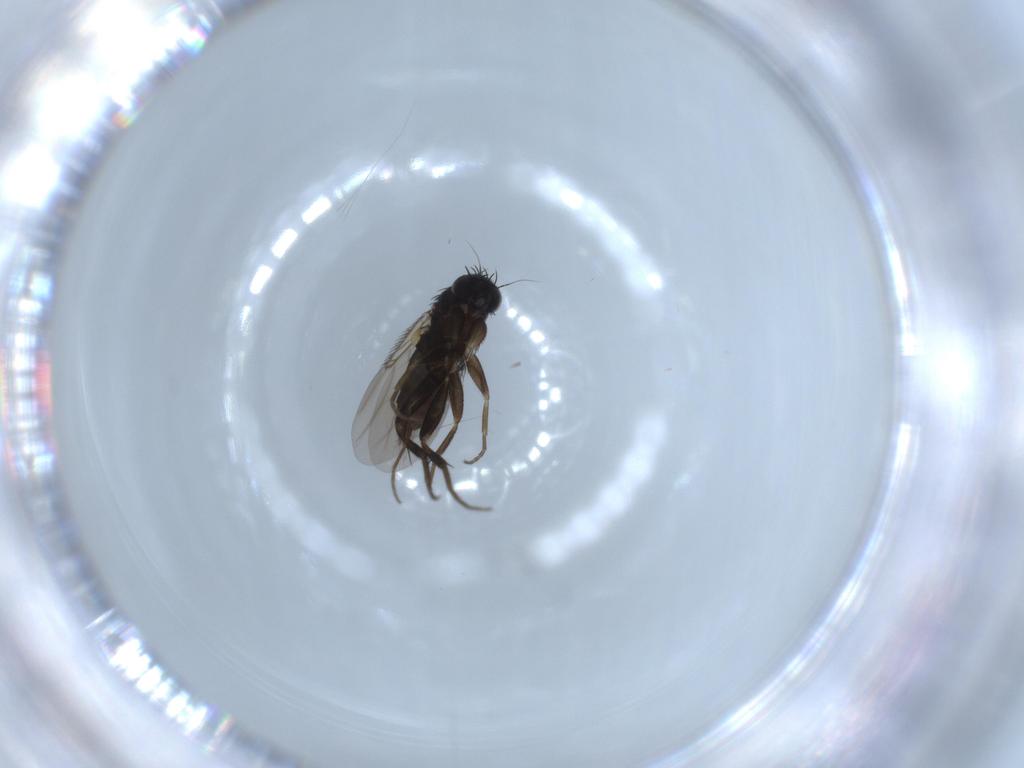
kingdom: Animalia
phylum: Arthropoda
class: Insecta
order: Diptera
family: Phoridae
